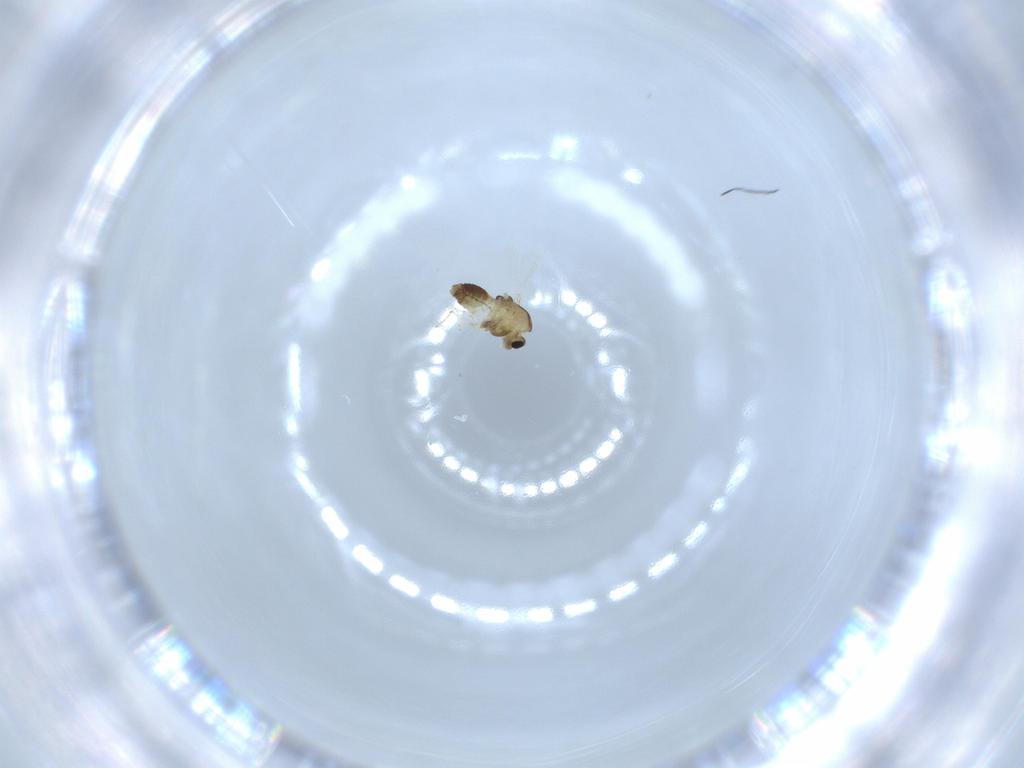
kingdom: Animalia
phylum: Arthropoda
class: Insecta
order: Diptera
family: Chironomidae
